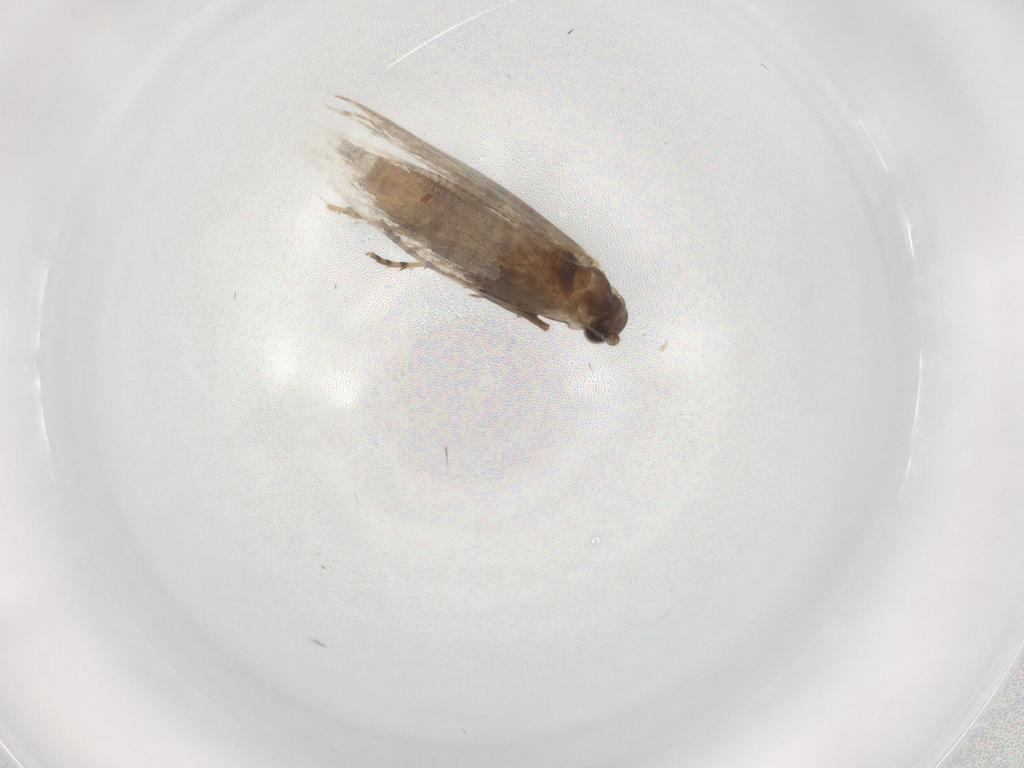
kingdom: Animalia
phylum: Arthropoda
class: Insecta
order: Lepidoptera
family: Gracillariidae
